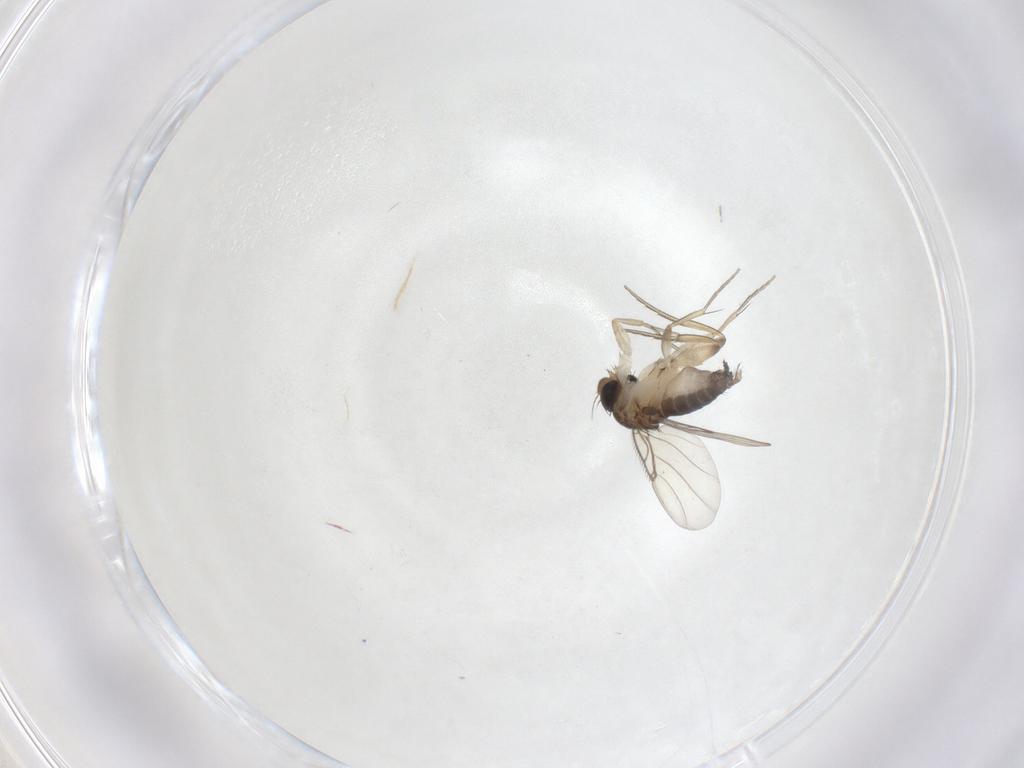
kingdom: Animalia
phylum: Arthropoda
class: Insecta
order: Diptera
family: Phoridae
